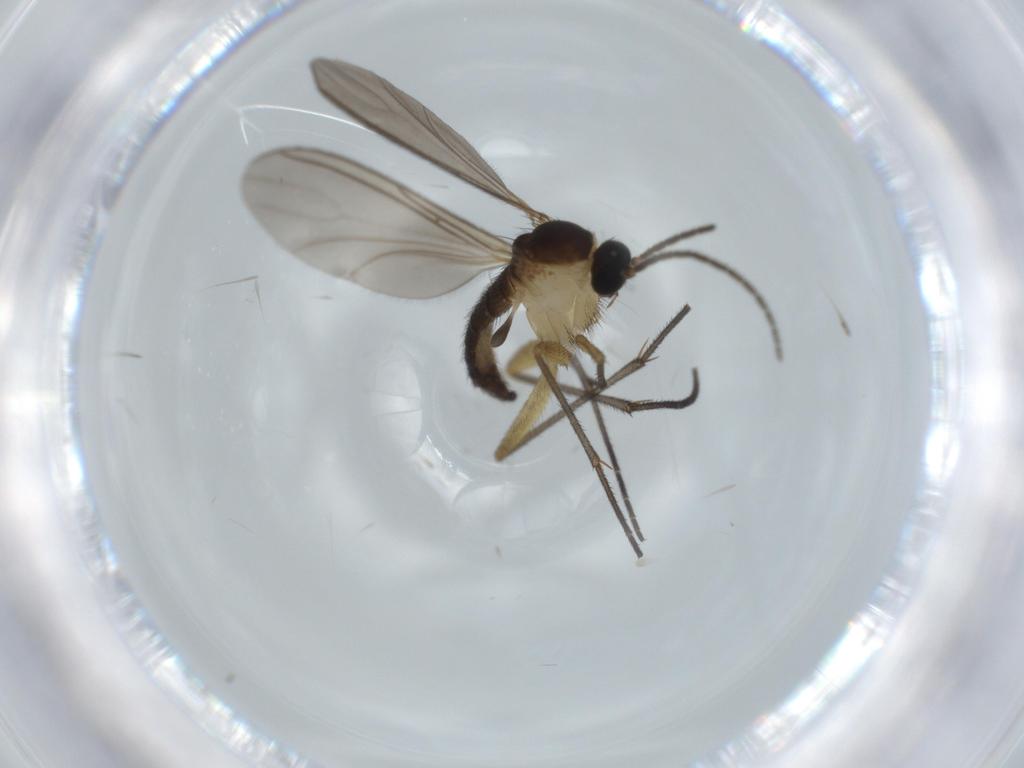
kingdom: Animalia
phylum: Arthropoda
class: Insecta
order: Diptera
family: Sciaridae
